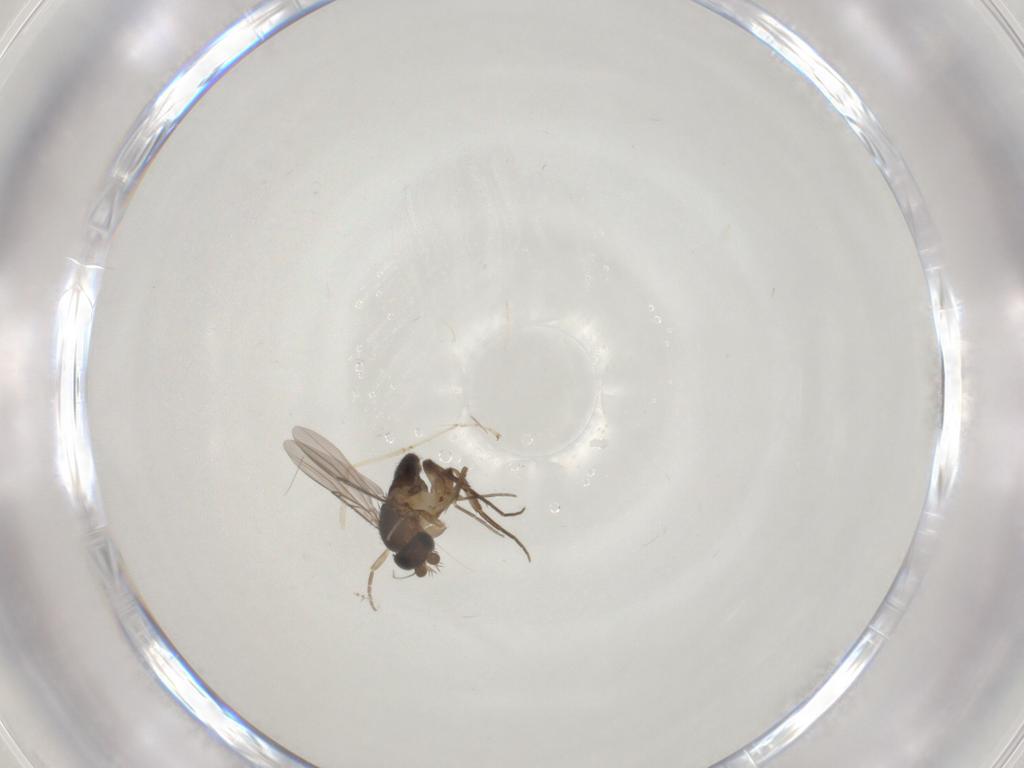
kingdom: Animalia
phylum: Arthropoda
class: Insecta
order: Diptera
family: Phoridae
